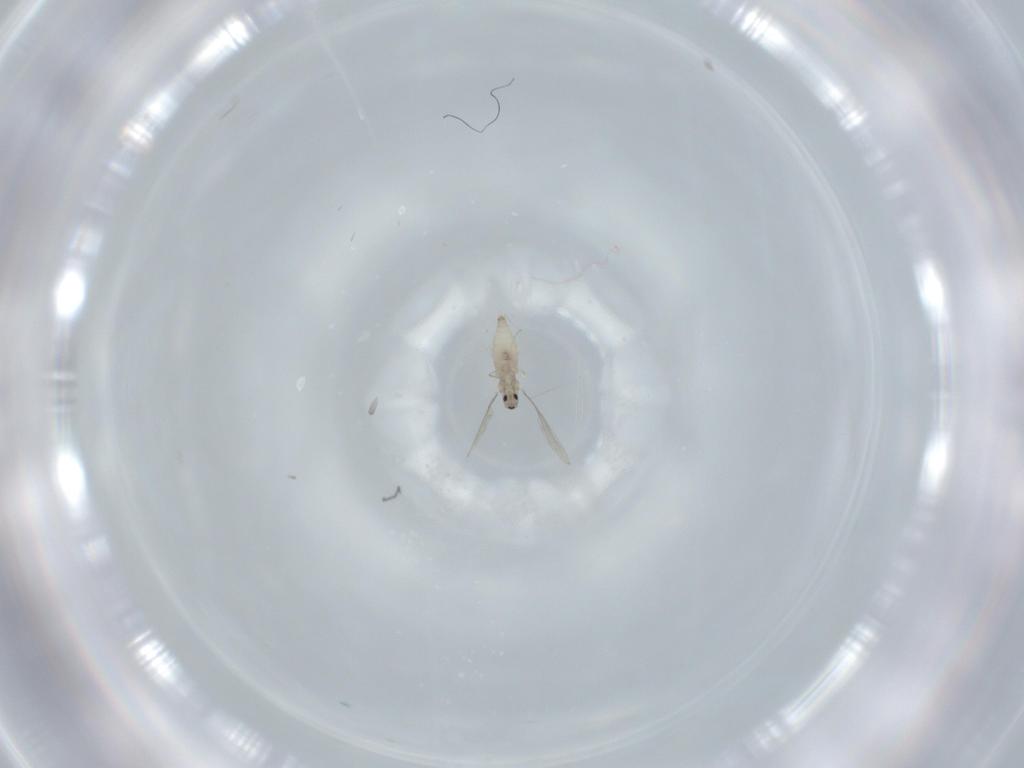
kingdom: Animalia
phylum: Arthropoda
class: Insecta
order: Diptera
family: Cecidomyiidae
